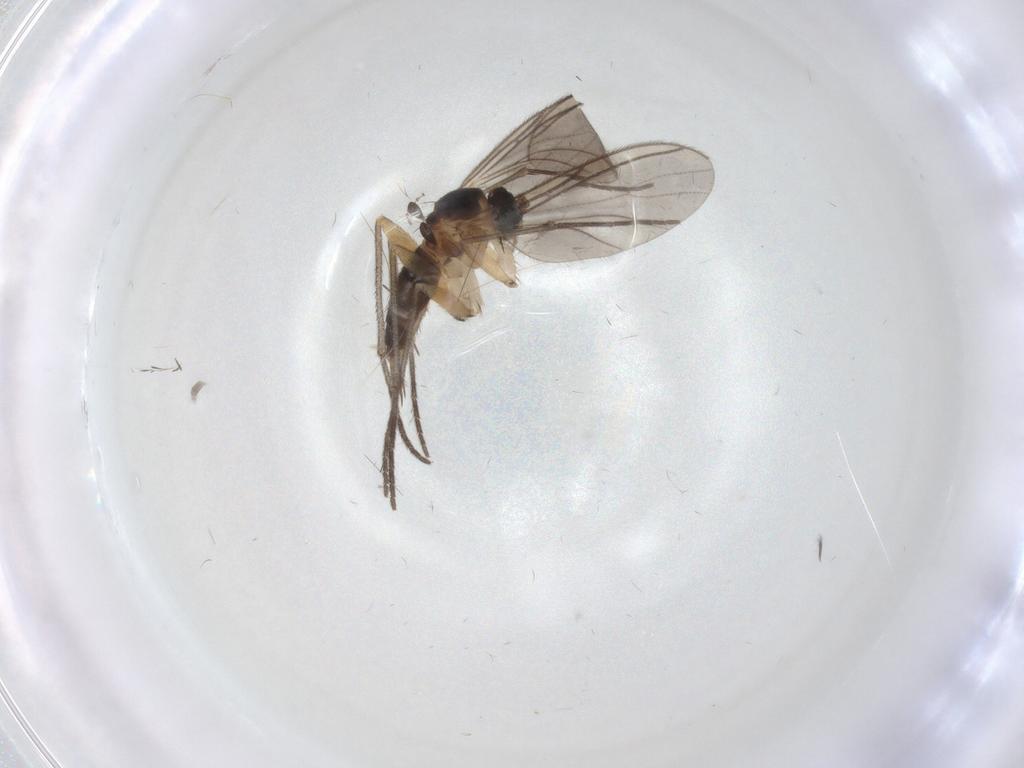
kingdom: Animalia
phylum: Arthropoda
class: Insecta
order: Diptera
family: Sciaridae
